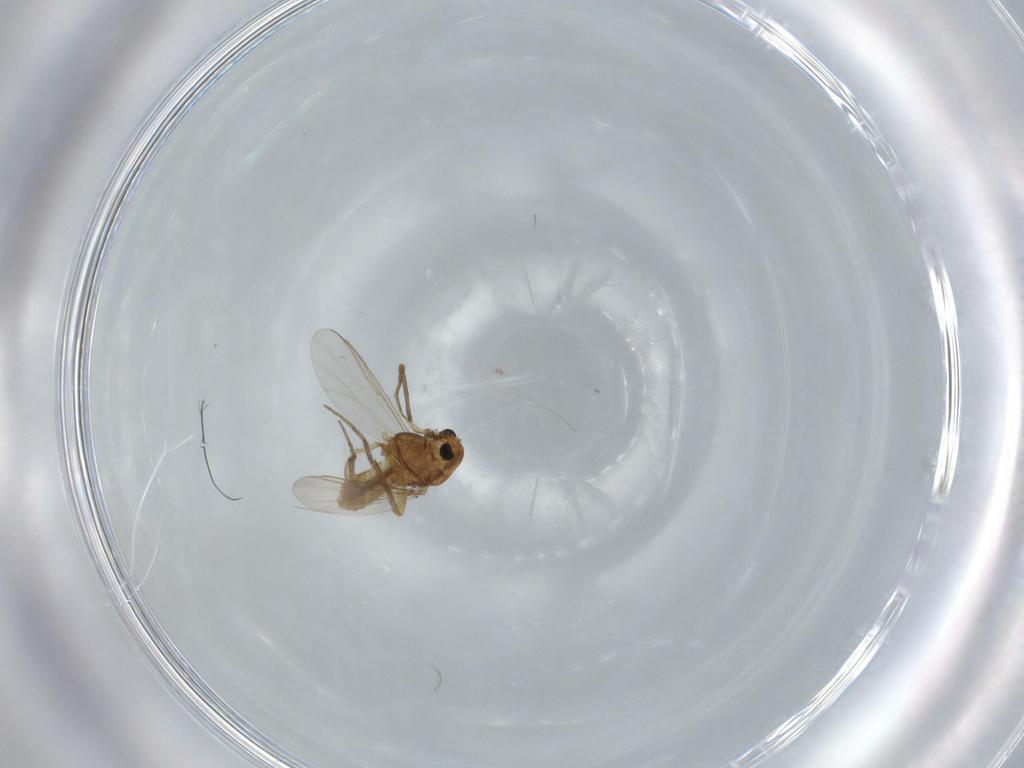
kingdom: Animalia
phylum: Arthropoda
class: Insecta
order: Diptera
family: Chironomidae
